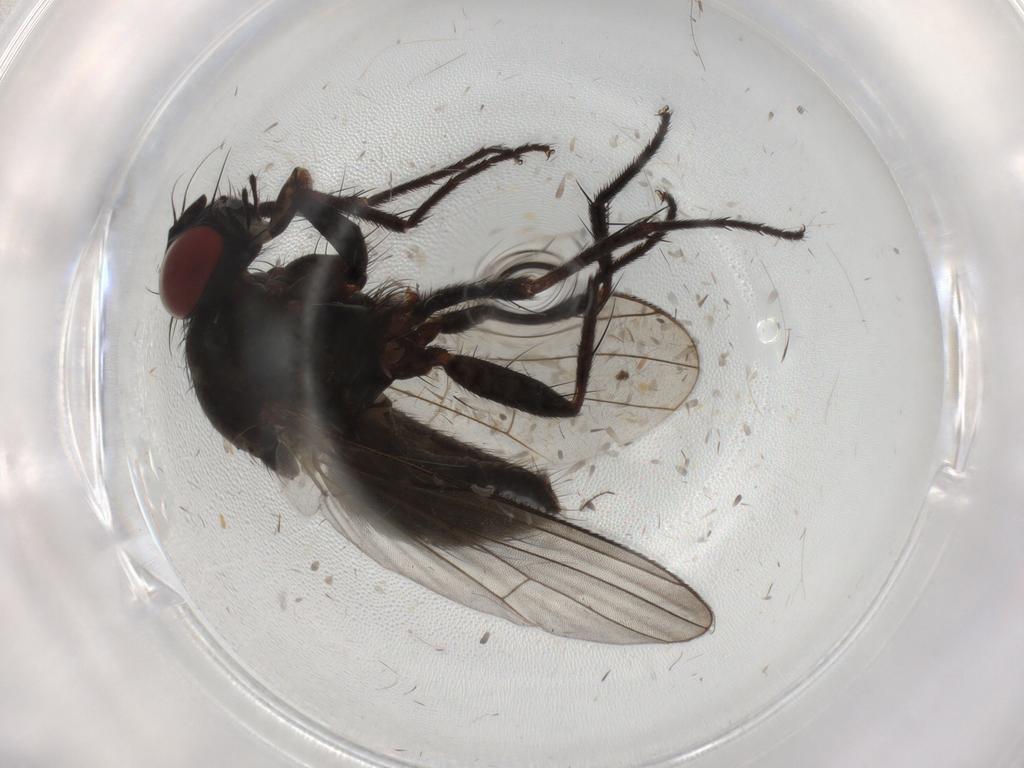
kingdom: Animalia
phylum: Arthropoda
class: Insecta
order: Diptera
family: Muscidae
